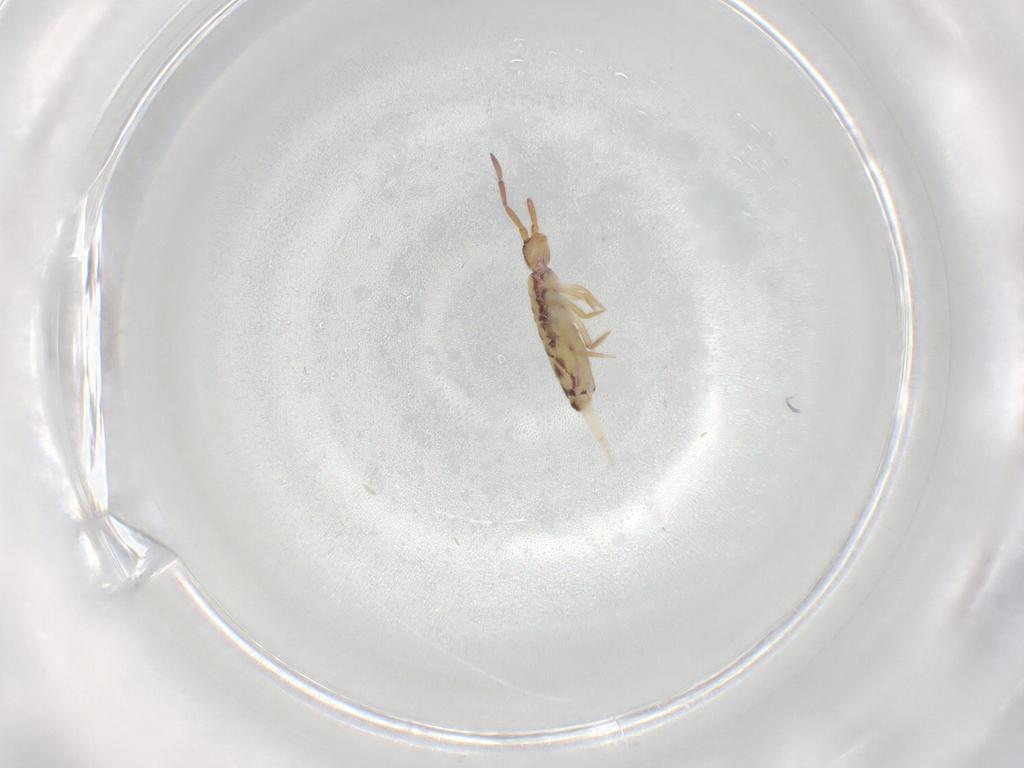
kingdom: Animalia
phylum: Arthropoda
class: Collembola
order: Entomobryomorpha
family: Entomobryidae
